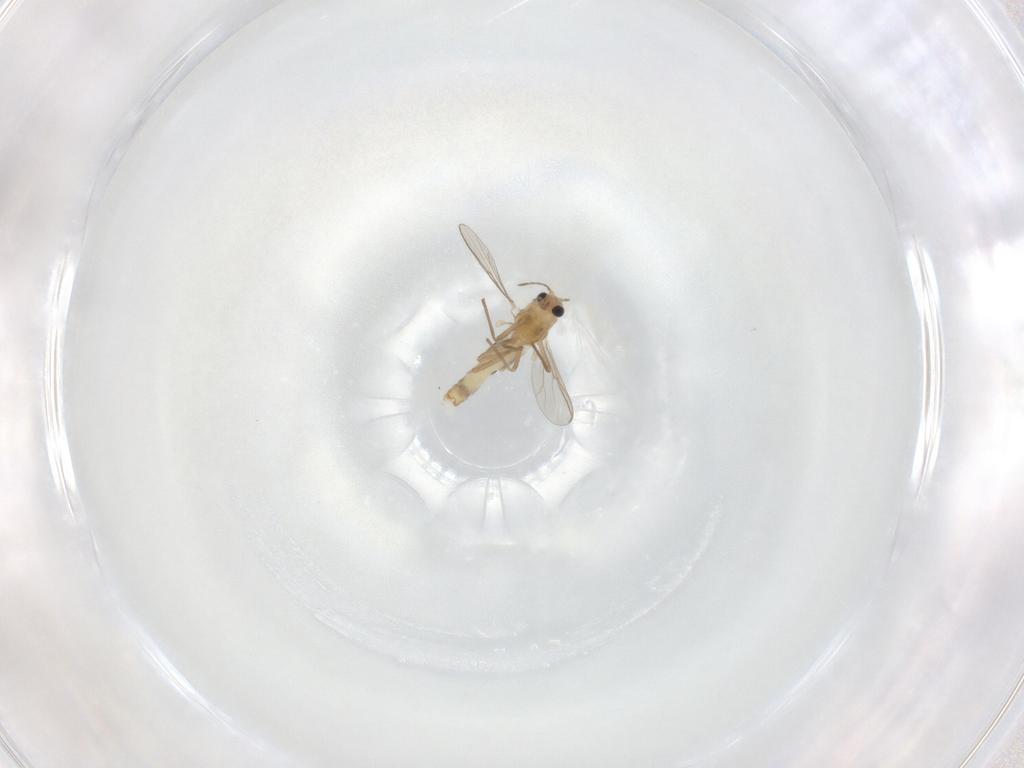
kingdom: Animalia
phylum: Arthropoda
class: Insecta
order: Diptera
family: Chironomidae
